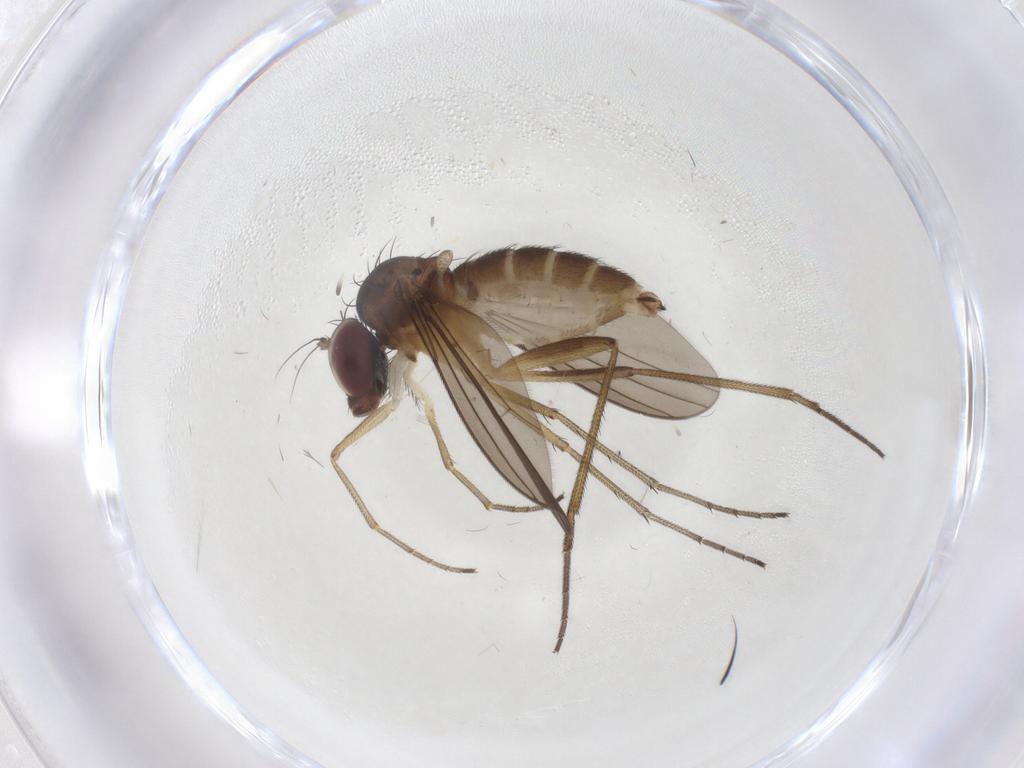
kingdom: Animalia
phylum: Arthropoda
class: Insecta
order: Diptera
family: Dolichopodidae
